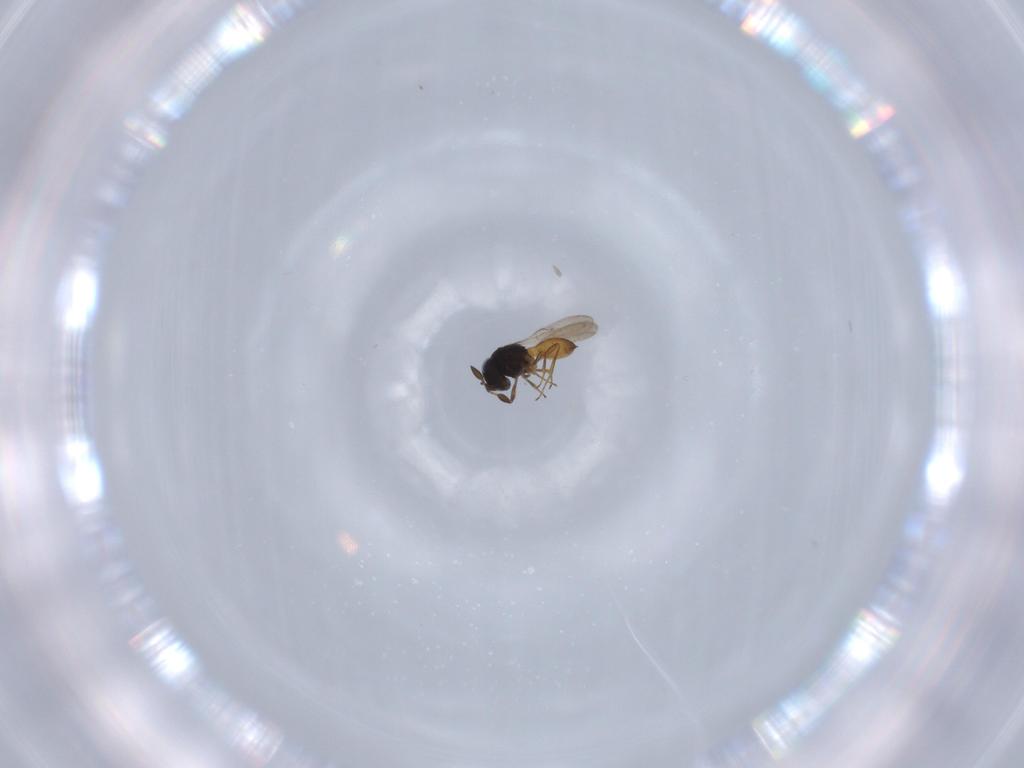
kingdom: Animalia
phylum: Arthropoda
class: Insecta
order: Hymenoptera
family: Scelionidae
